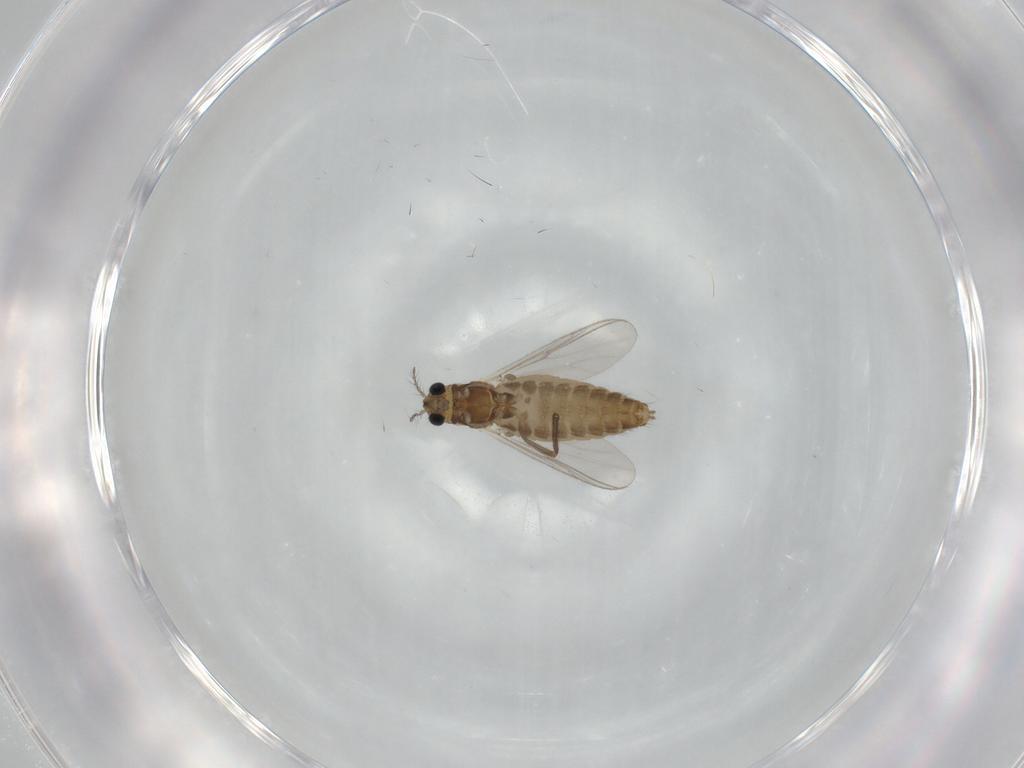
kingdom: Animalia
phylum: Arthropoda
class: Insecta
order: Diptera
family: Chironomidae
